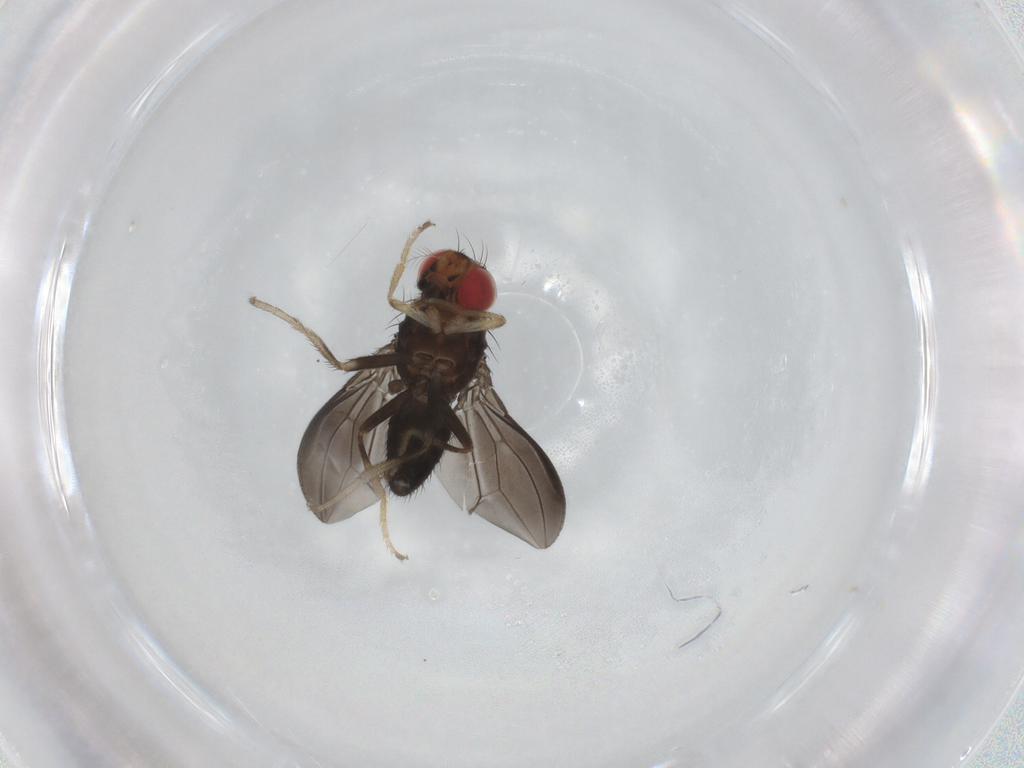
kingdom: Animalia
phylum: Arthropoda
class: Insecta
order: Diptera
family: Drosophilidae
